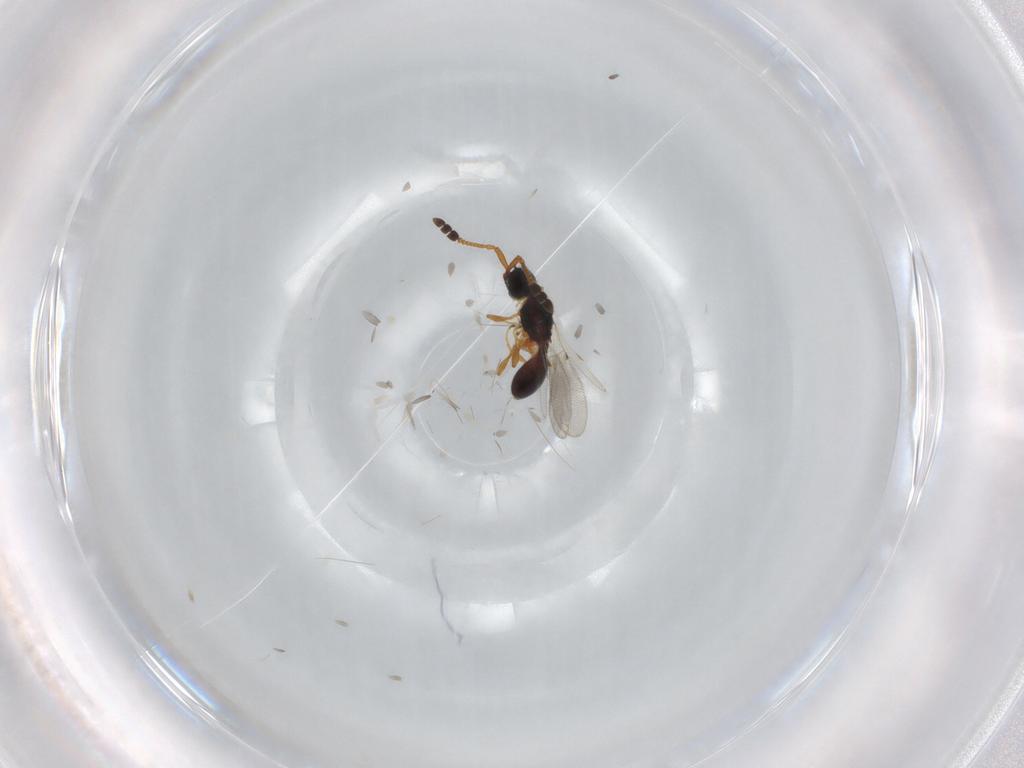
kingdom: Animalia
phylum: Arthropoda
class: Insecta
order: Hymenoptera
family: Diapriidae
